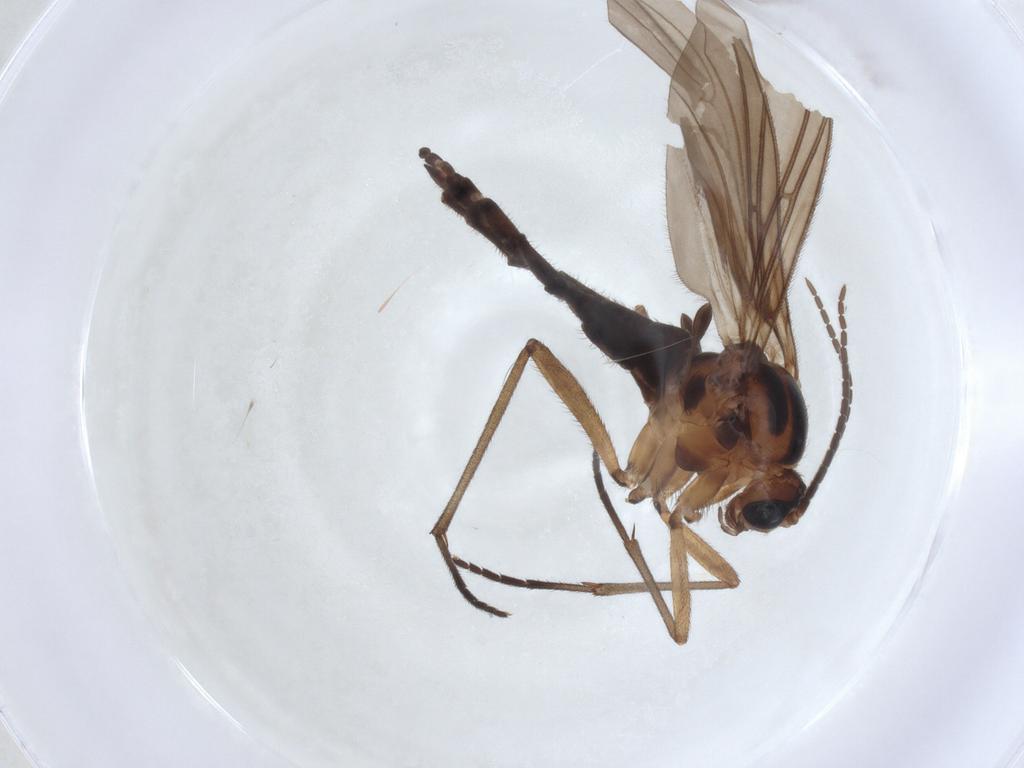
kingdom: Animalia
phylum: Arthropoda
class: Insecta
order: Diptera
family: Sciaridae
